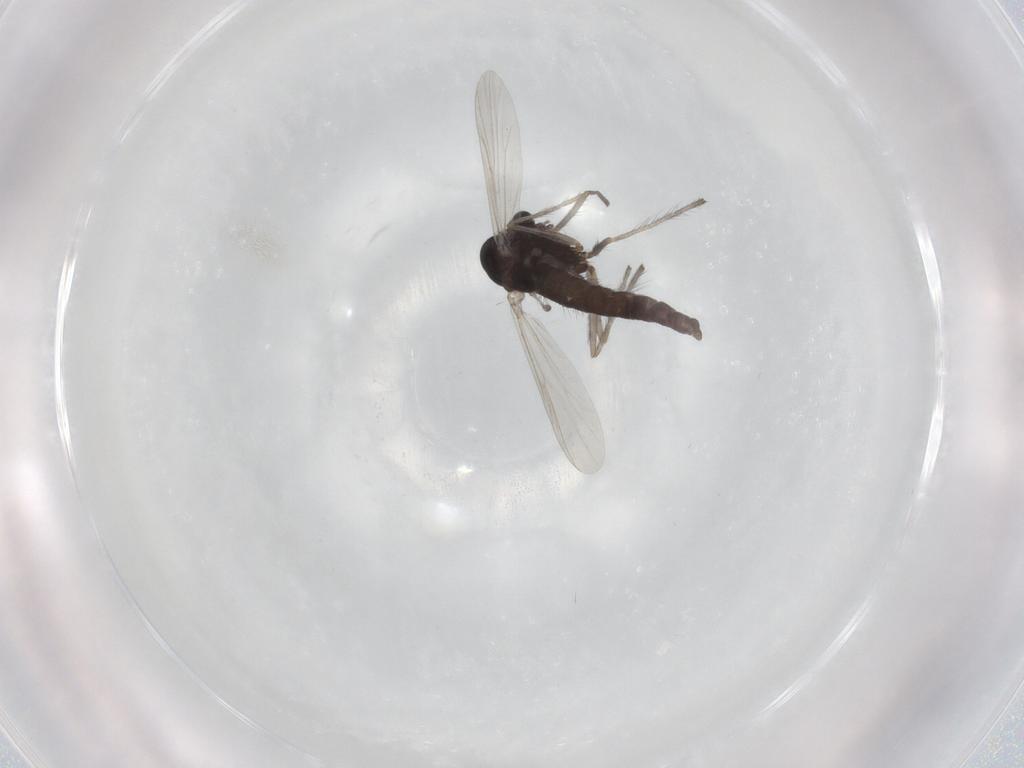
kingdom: Animalia
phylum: Arthropoda
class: Insecta
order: Diptera
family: Chironomidae
